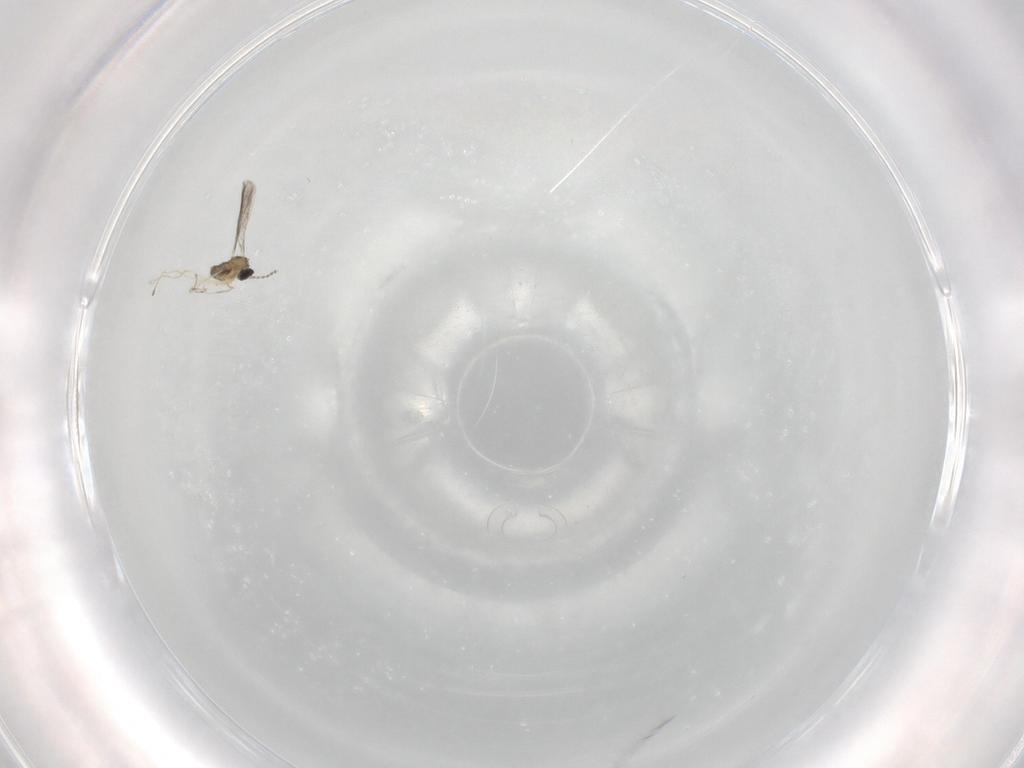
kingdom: Animalia
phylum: Arthropoda
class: Insecta
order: Diptera
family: Cecidomyiidae
